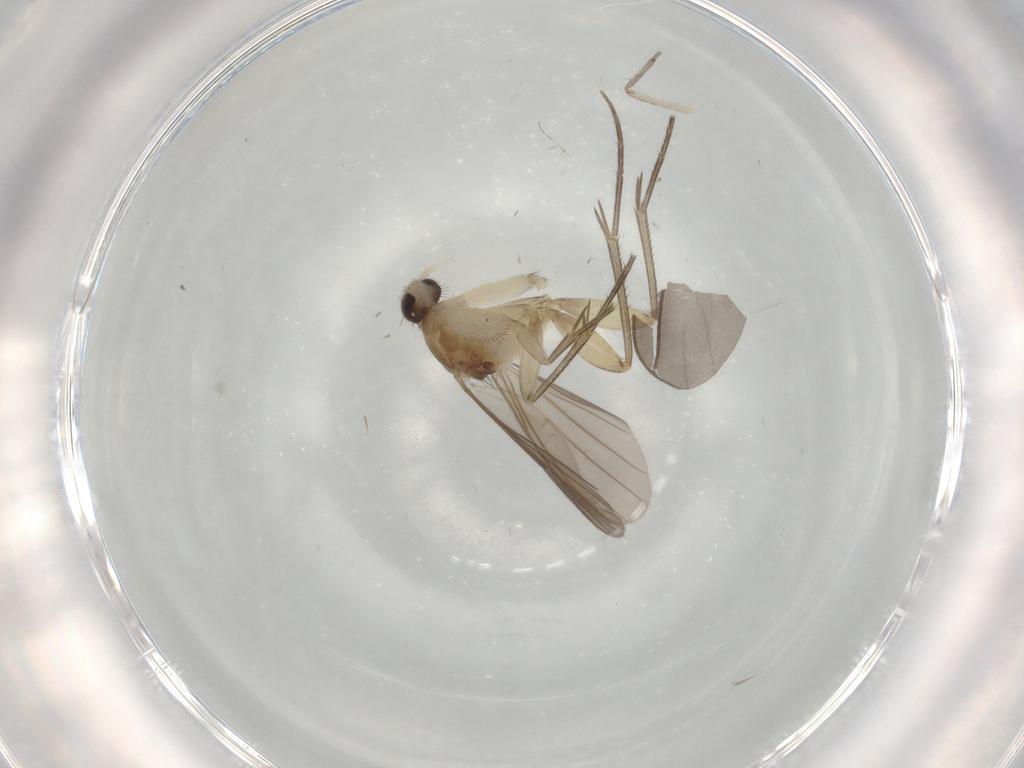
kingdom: Animalia
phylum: Arthropoda
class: Insecta
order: Diptera
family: Mycetophilidae
